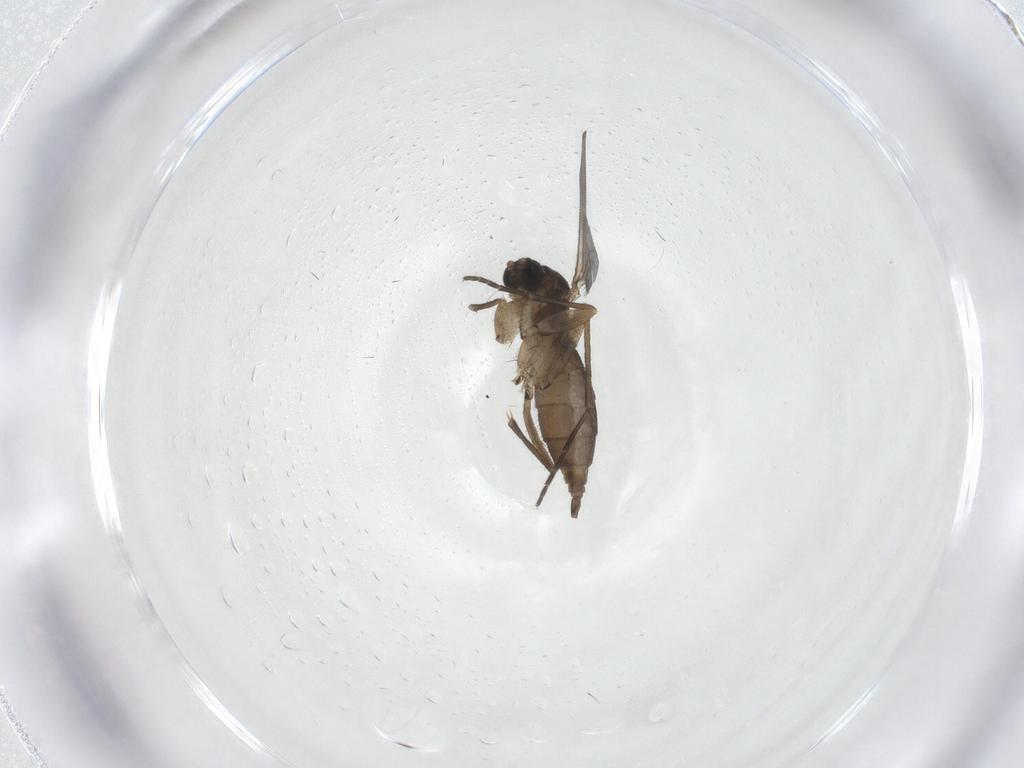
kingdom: Animalia
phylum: Arthropoda
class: Insecta
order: Diptera
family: Sciaridae
